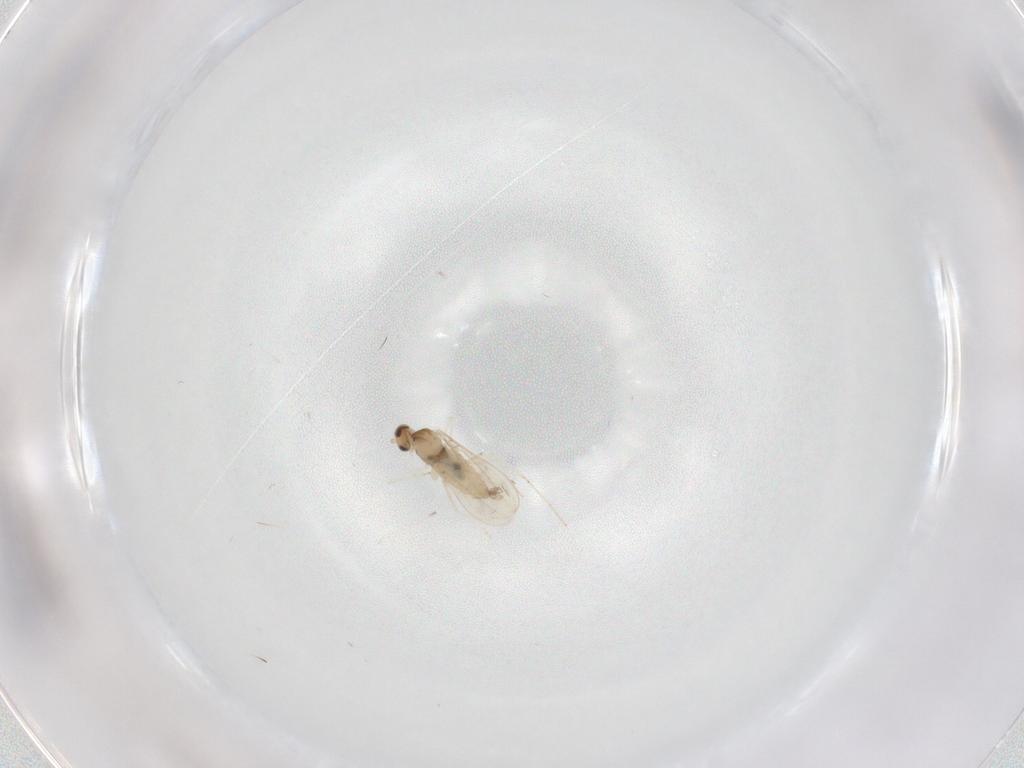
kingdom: Animalia
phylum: Arthropoda
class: Insecta
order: Diptera
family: Cecidomyiidae
